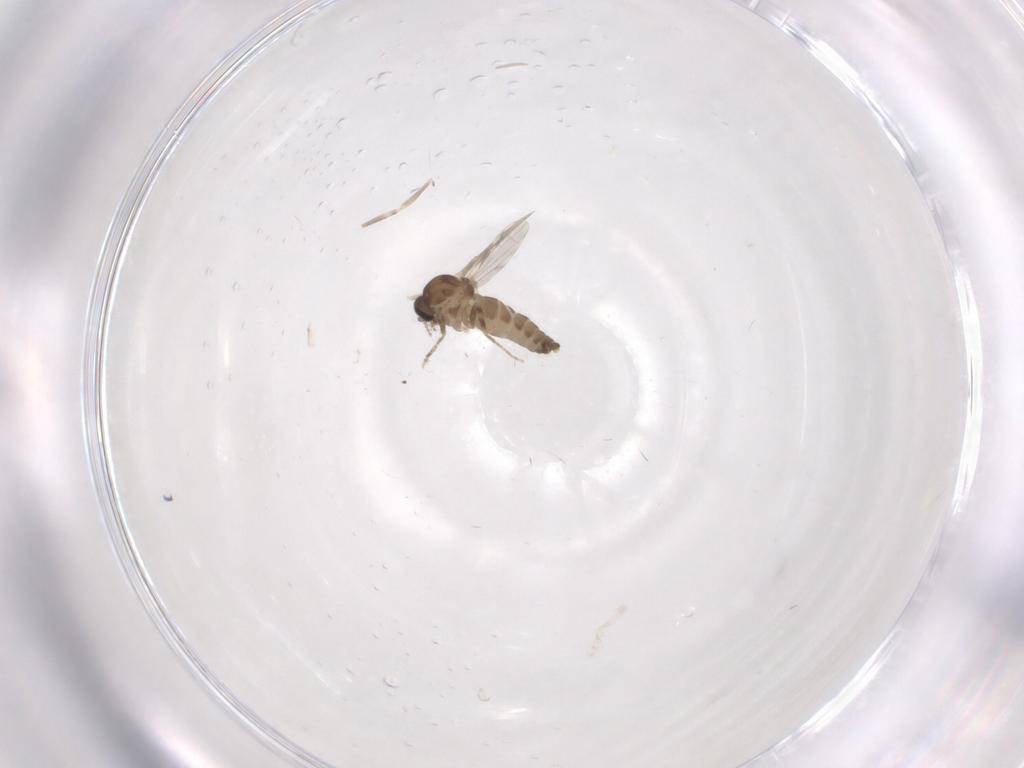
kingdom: Animalia
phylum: Arthropoda
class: Insecta
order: Diptera
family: Ceratopogonidae
